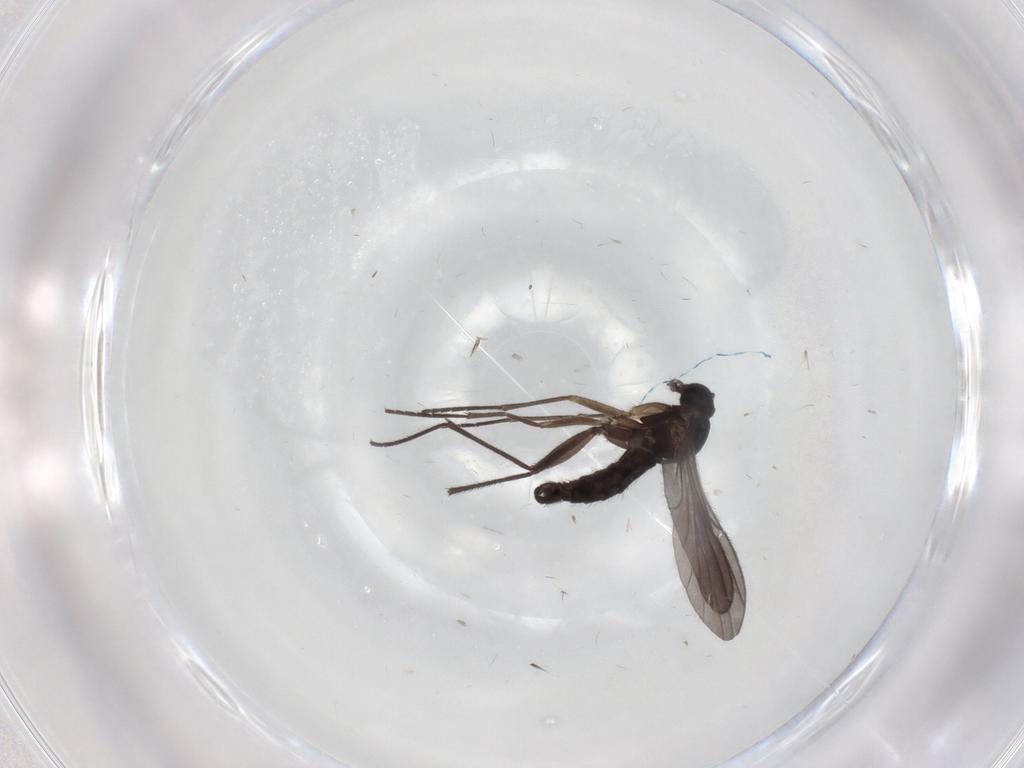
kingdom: Animalia
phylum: Arthropoda
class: Insecta
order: Diptera
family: Sciaridae
